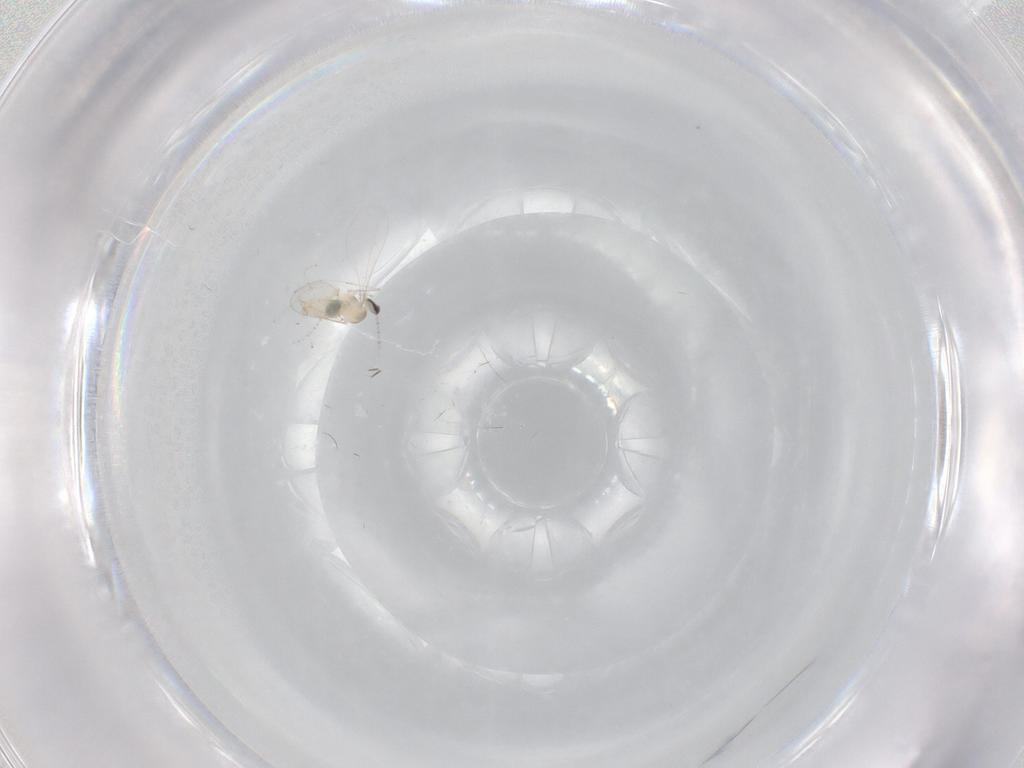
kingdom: Animalia
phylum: Arthropoda
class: Insecta
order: Diptera
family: Cecidomyiidae
